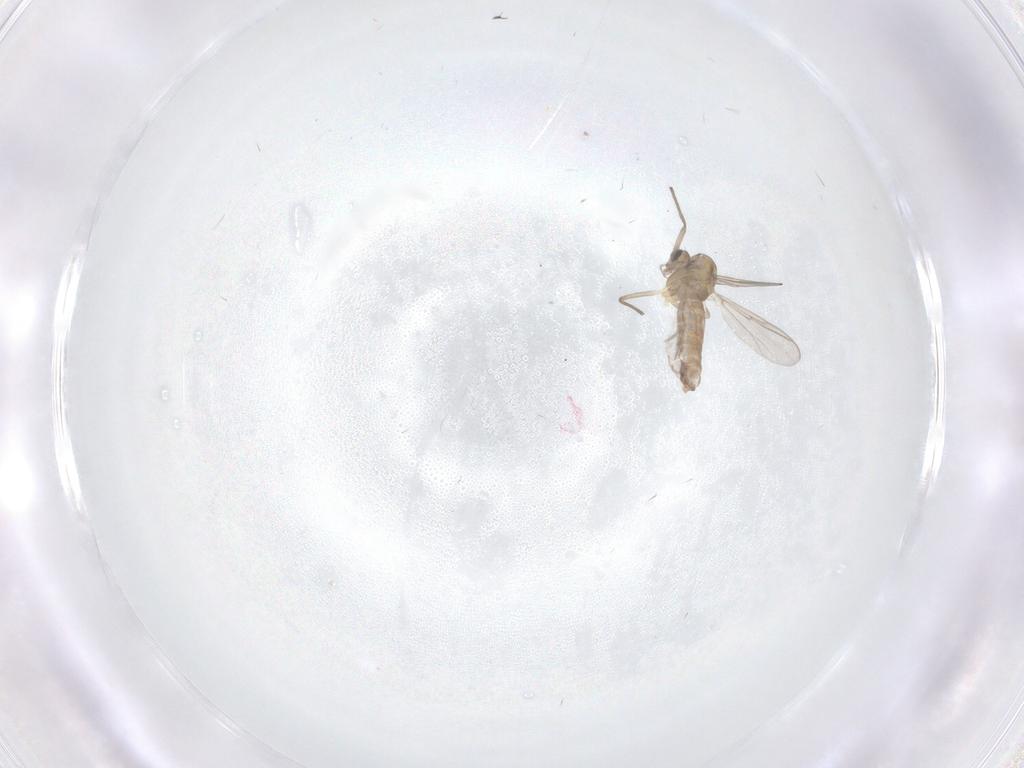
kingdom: Animalia
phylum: Arthropoda
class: Insecta
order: Diptera
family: Chironomidae
